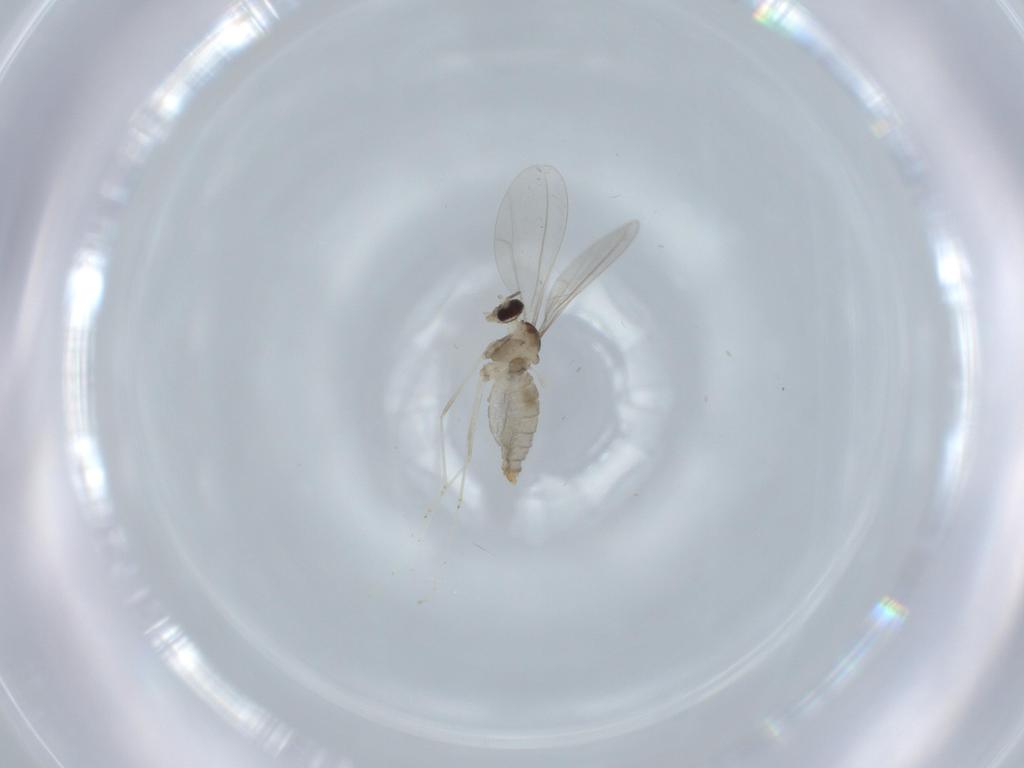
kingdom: Animalia
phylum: Arthropoda
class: Insecta
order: Diptera
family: Cecidomyiidae
